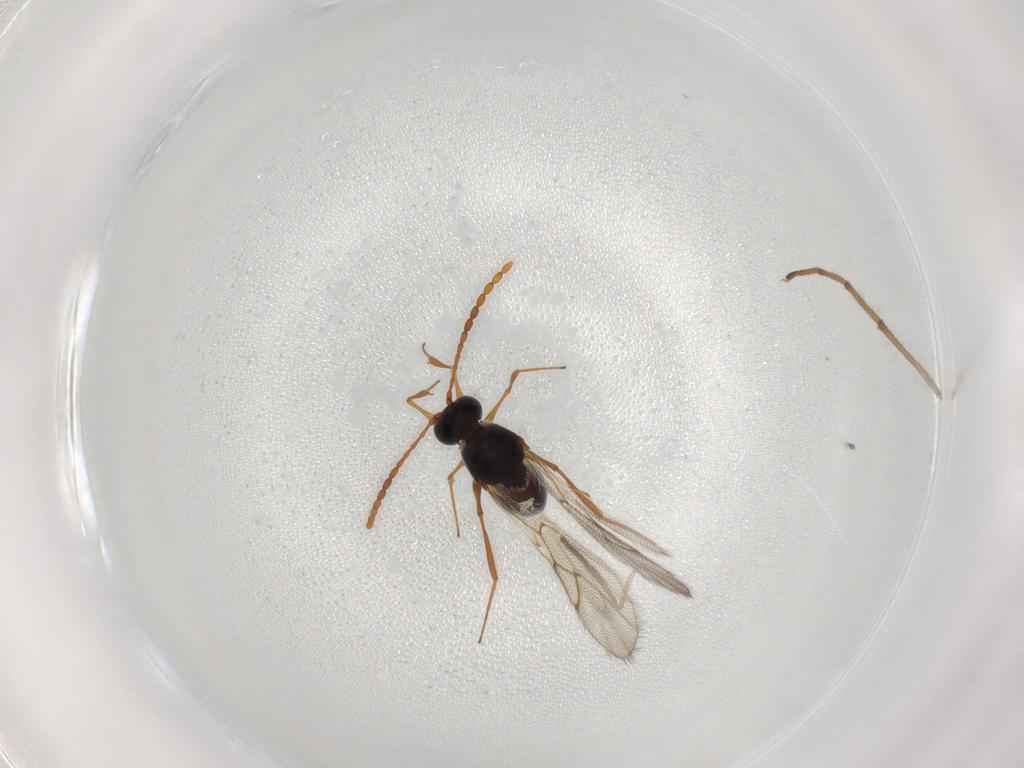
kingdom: Animalia
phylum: Arthropoda
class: Insecta
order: Hymenoptera
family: Figitidae
